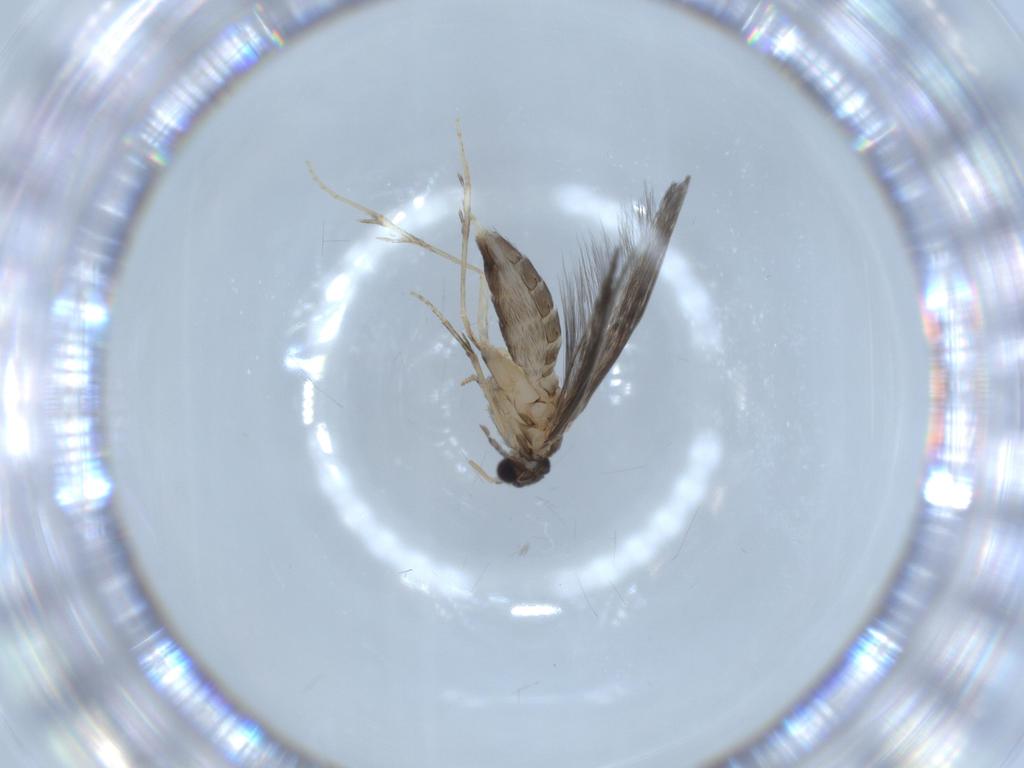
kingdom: Animalia
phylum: Arthropoda
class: Insecta
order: Trichoptera
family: Hydroptilidae
